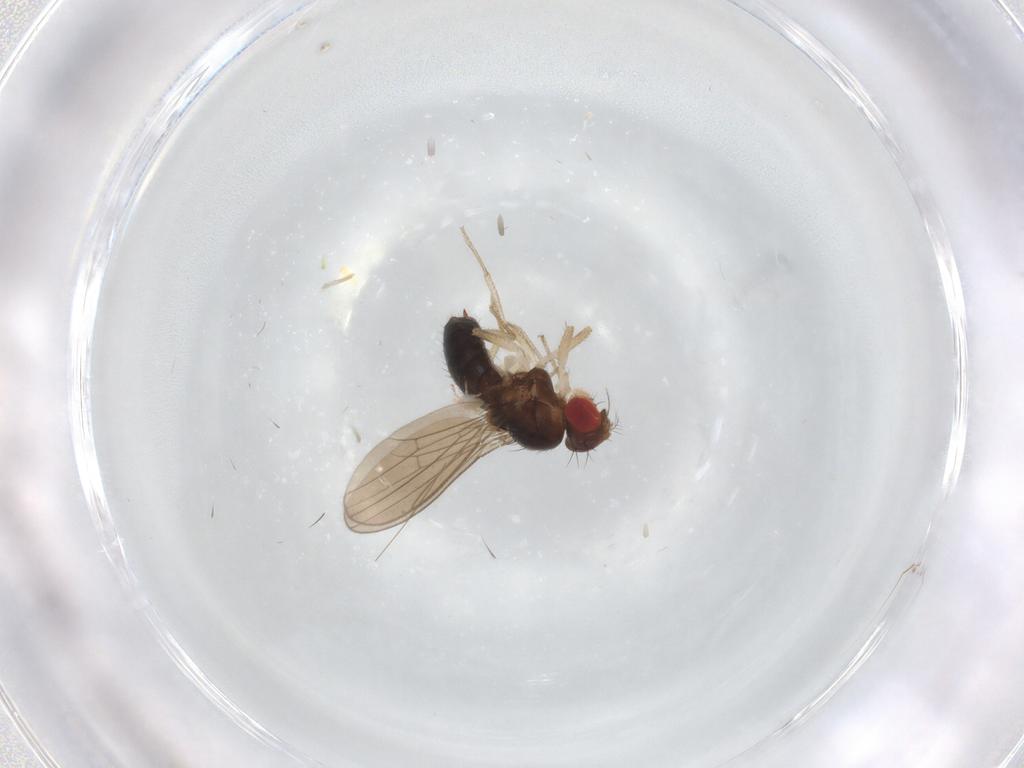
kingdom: Animalia
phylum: Arthropoda
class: Insecta
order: Diptera
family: Drosophilidae
